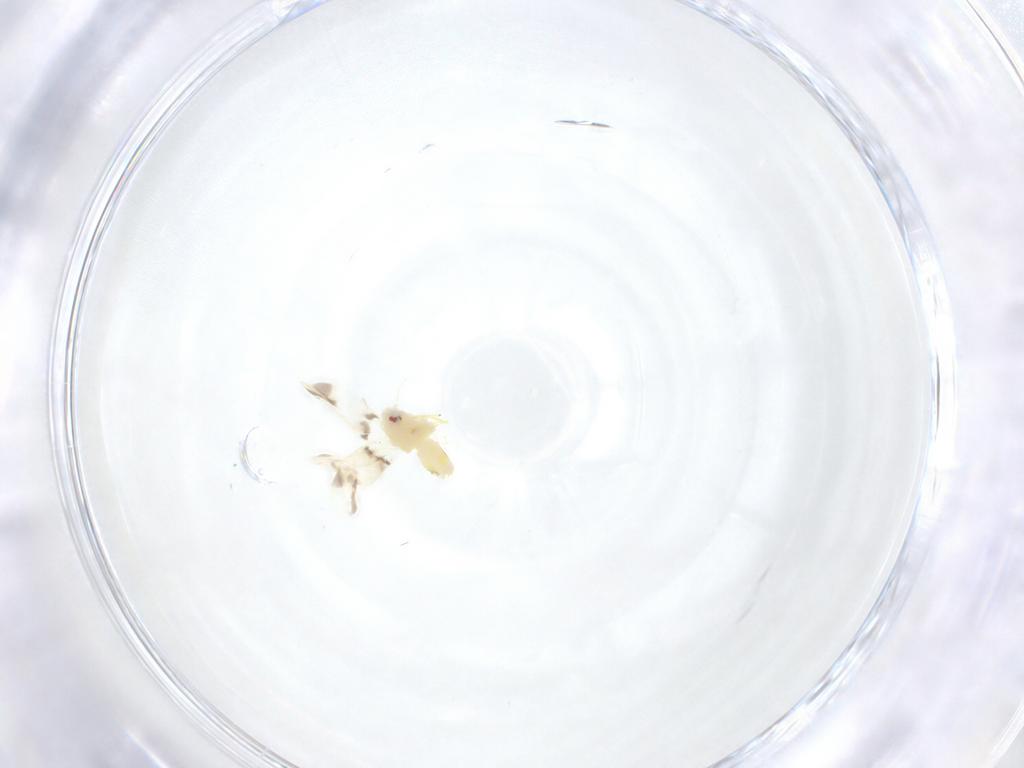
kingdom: Animalia
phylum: Arthropoda
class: Insecta
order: Hemiptera
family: Aleyrodidae
